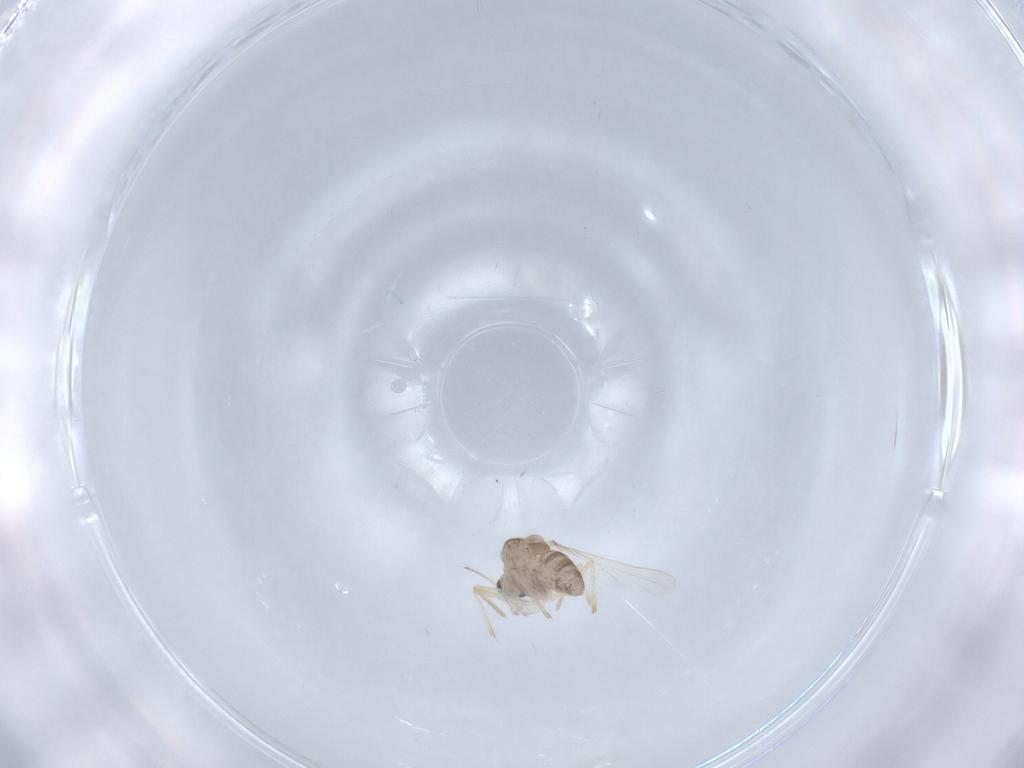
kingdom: Animalia
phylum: Arthropoda
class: Insecta
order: Diptera
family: Chironomidae
